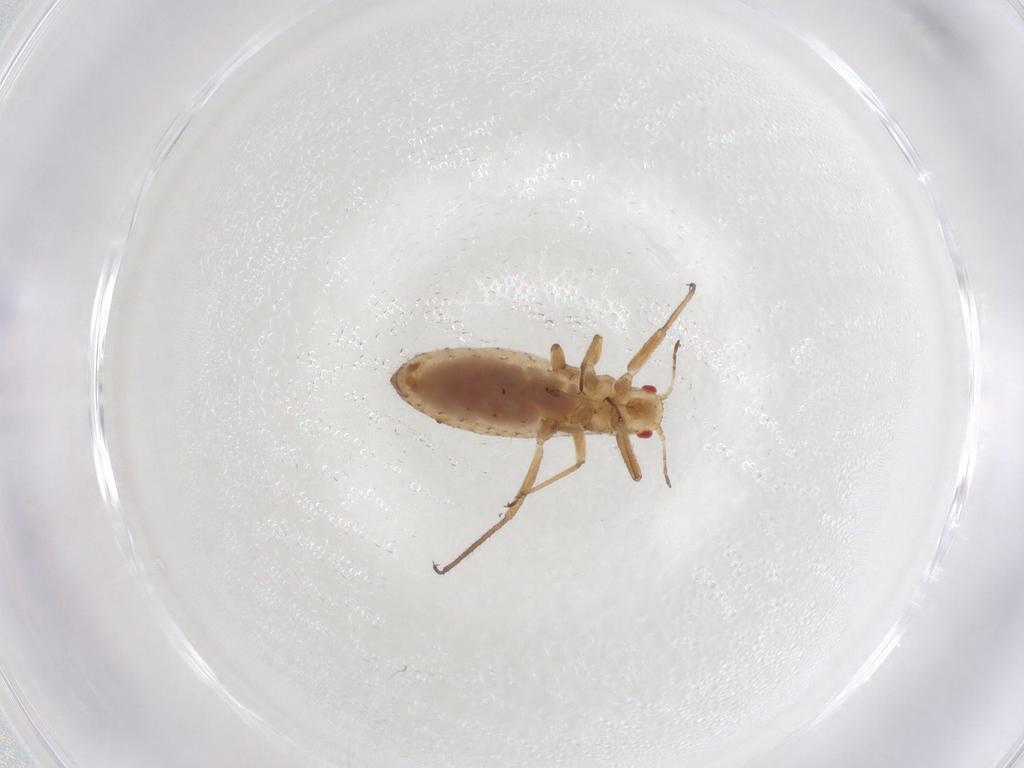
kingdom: Animalia
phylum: Arthropoda
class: Insecta
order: Hemiptera
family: Lachnidae
